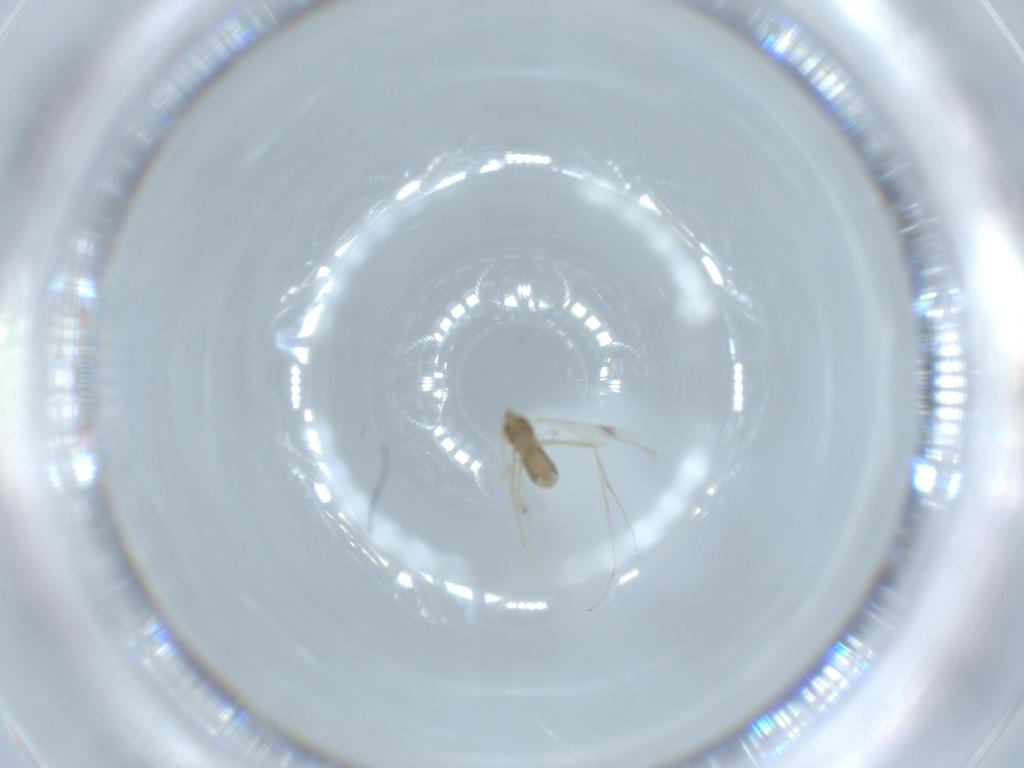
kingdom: Animalia
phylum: Arthropoda
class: Insecta
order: Diptera
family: Cecidomyiidae
